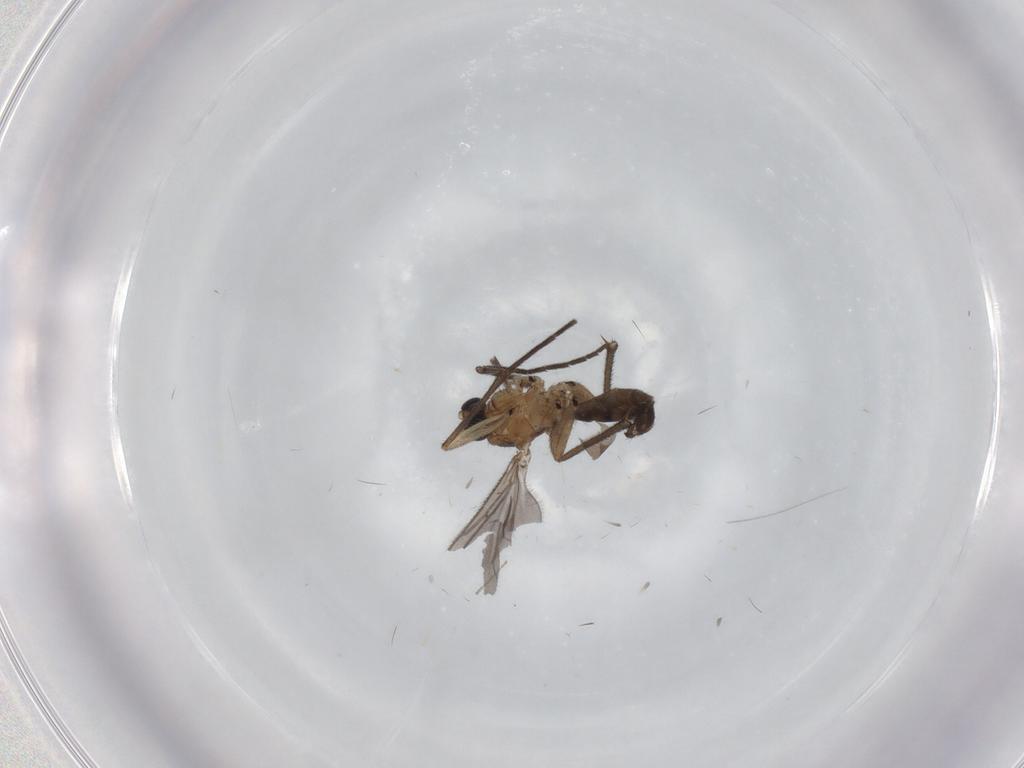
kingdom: Animalia
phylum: Arthropoda
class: Insecta
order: Diptera
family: Sciaridae
